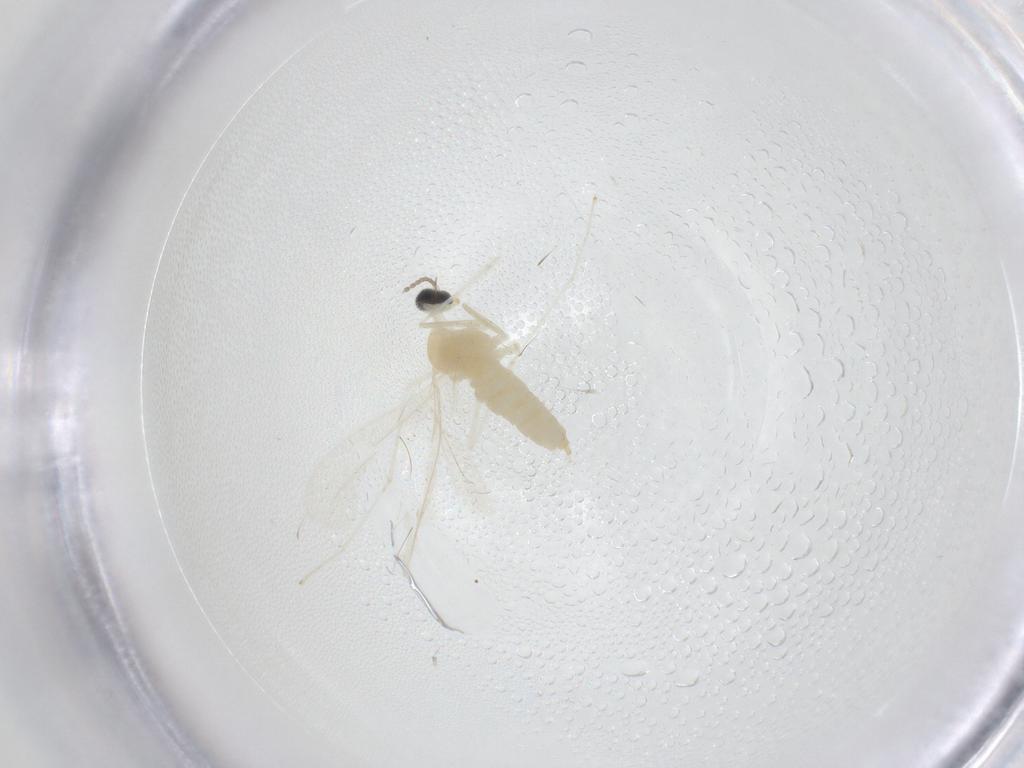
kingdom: Animalia
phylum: Arthropoda
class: Insecta
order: Diptera
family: Cecidomyiidae
